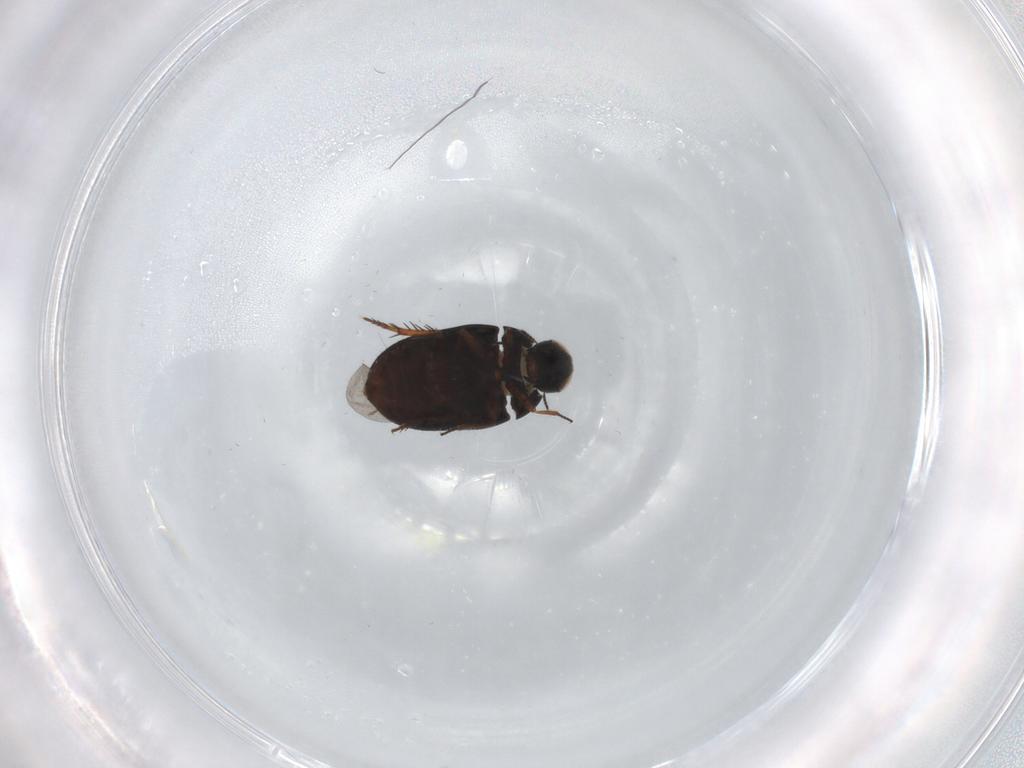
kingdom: Animalia
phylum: Arthropoda
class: Insecta
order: Coleoptera
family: Limnichidae
